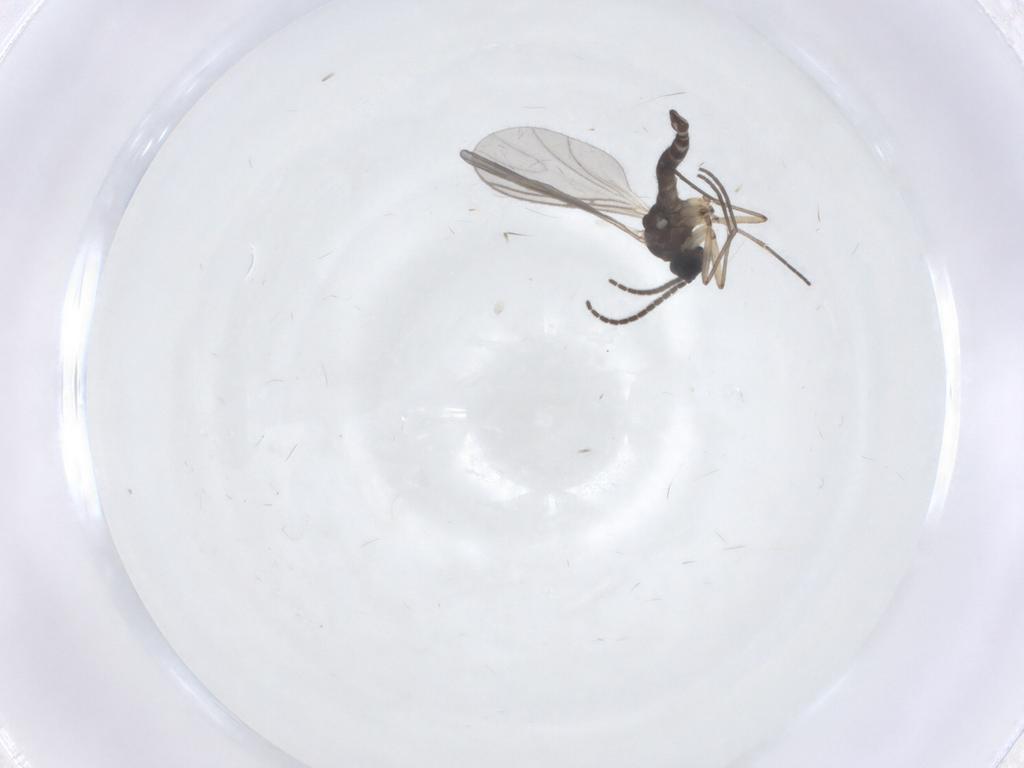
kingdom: Animalia
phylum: Arthropoda
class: Insecta
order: Diptera
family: Sciaridae
